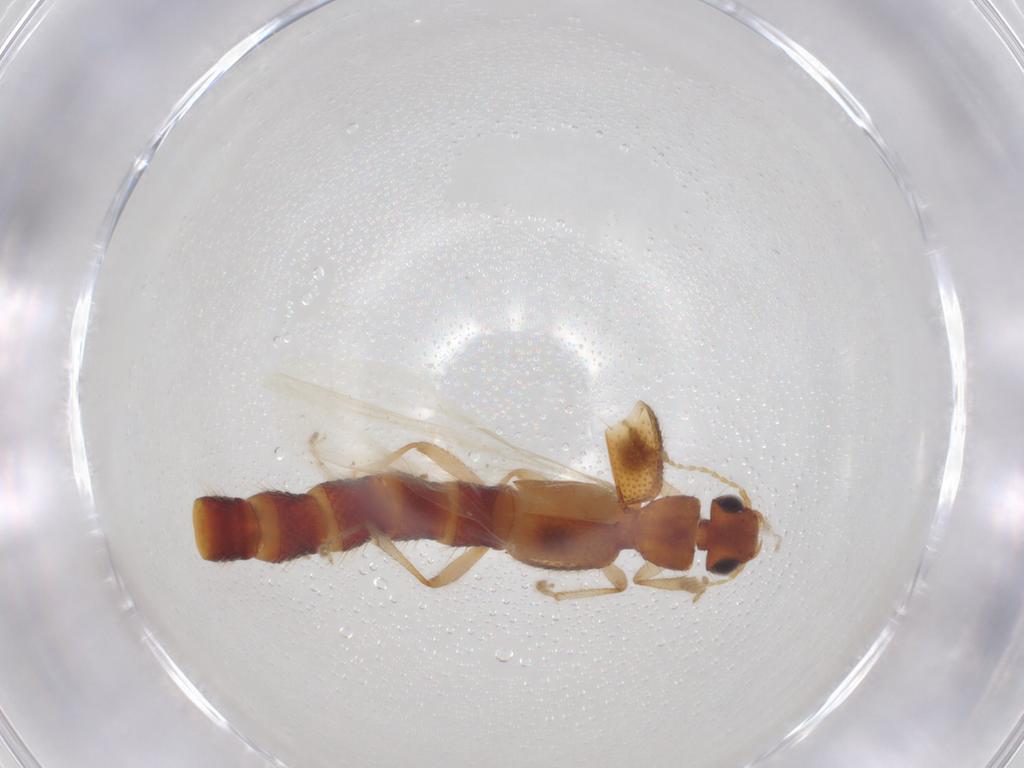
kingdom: Animalia
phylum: Arthropoda
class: Insecta
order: Coleoptera
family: Staphylinidae
